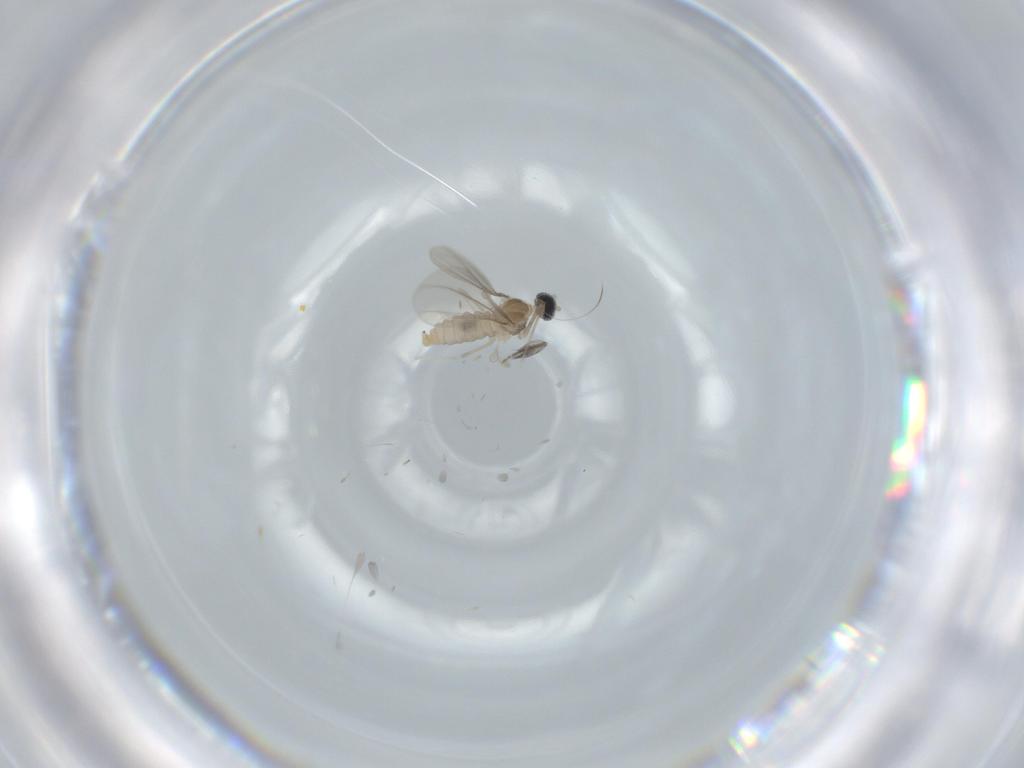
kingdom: Animalia
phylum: Arthropoda
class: Insecta
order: Diptera
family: Cecidomyiidae
